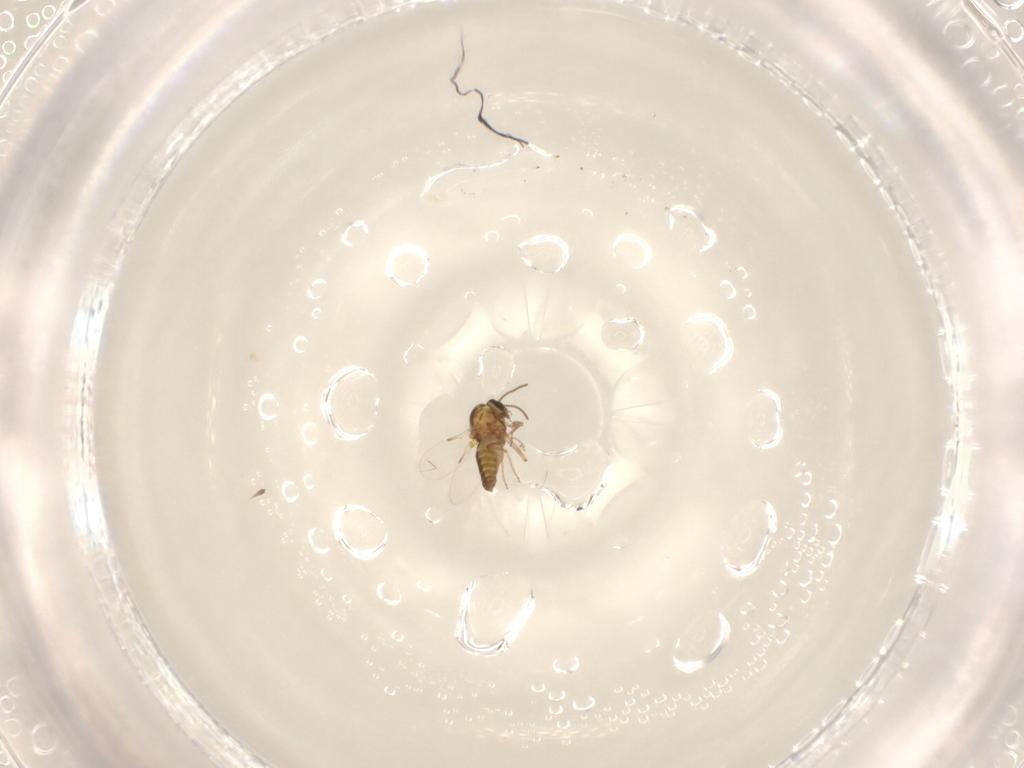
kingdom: Animalia
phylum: Arthropoda
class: Insecta
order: Diptera
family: Ceratopogonidae
